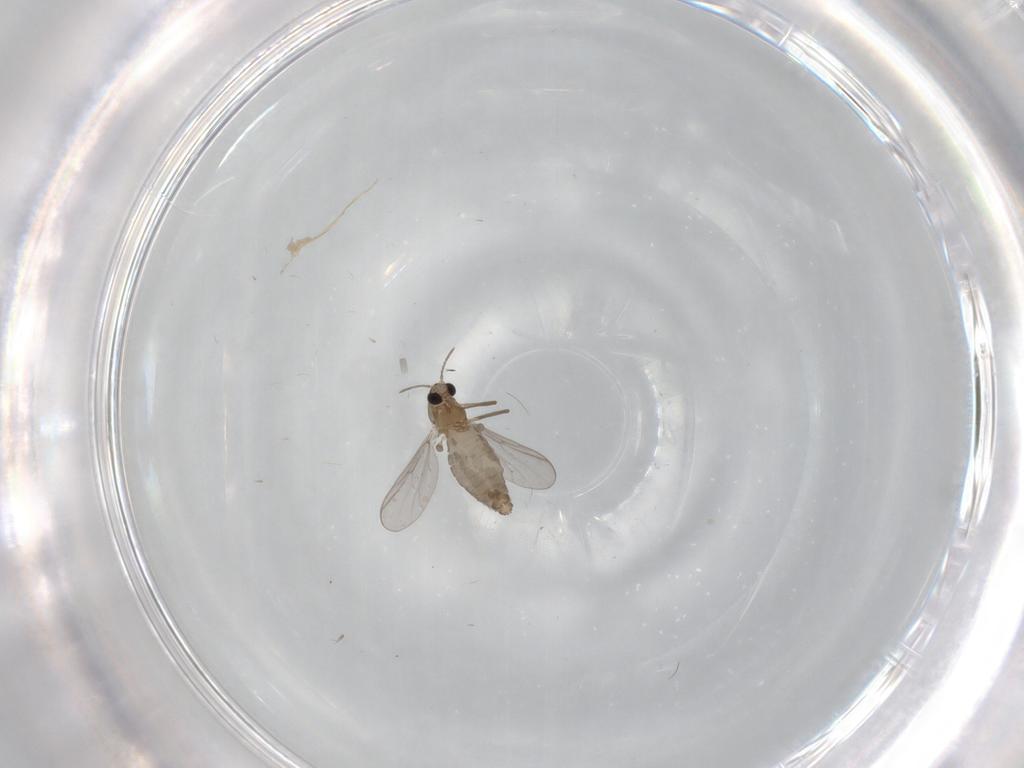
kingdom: Animalia
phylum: Arthropoda
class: Insecta
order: Diptera
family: Chironomidae
